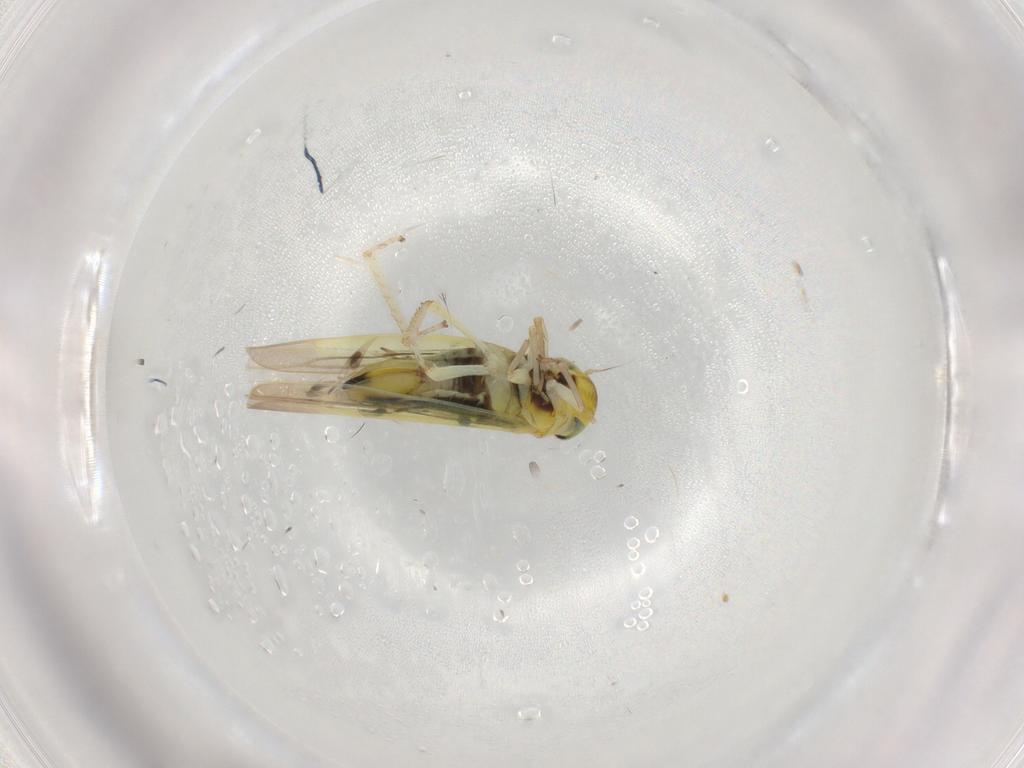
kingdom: Animalia
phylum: Arthropoda
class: Insecta
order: Hemiptera
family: Cicadellidae
